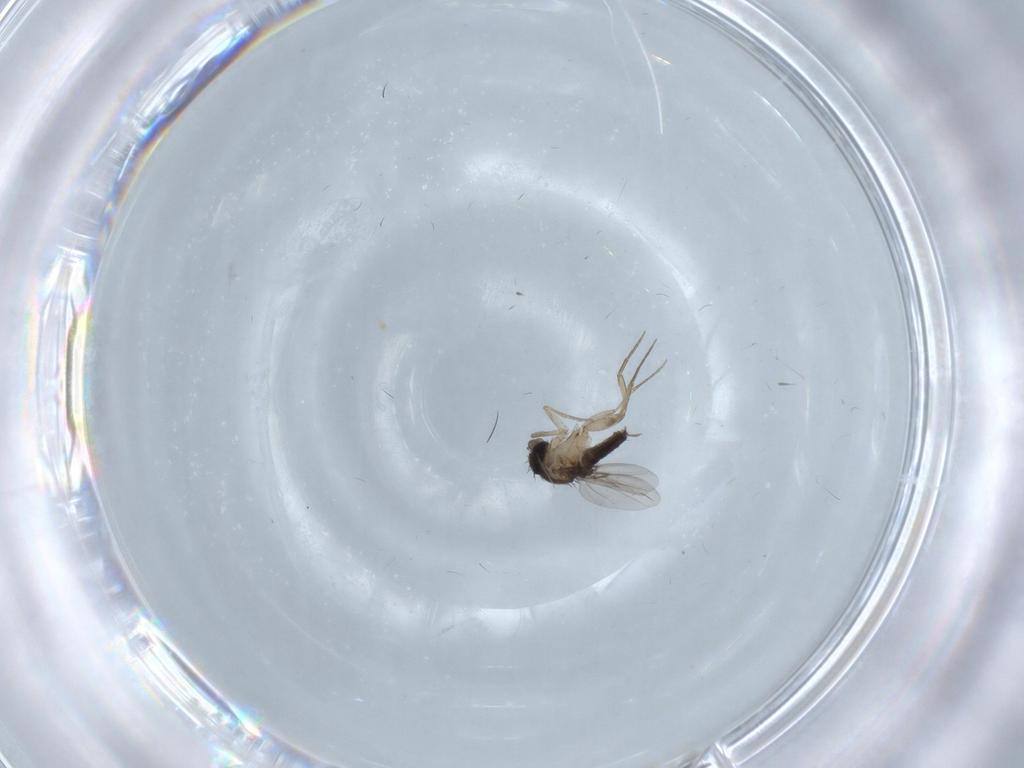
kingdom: Animalia
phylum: Arthropoda
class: Insecta
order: Diptera
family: Phoridae
